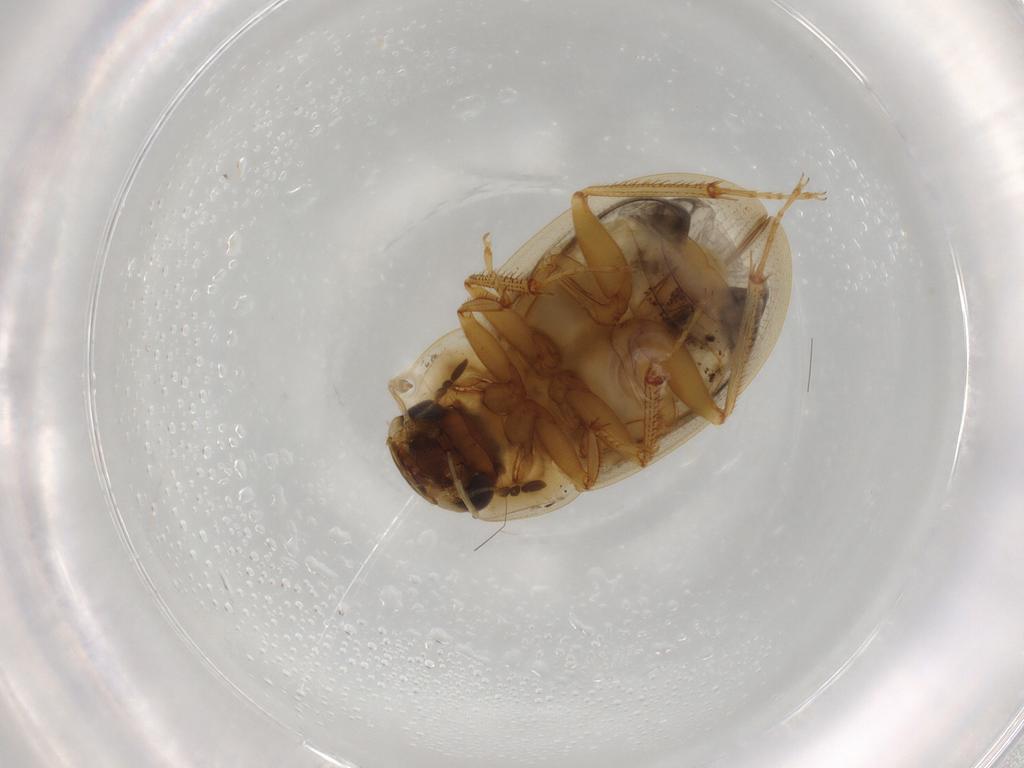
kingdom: Animalia
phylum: Arthropoda
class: Insecta
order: Coleoptera
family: Hydrophilidae
